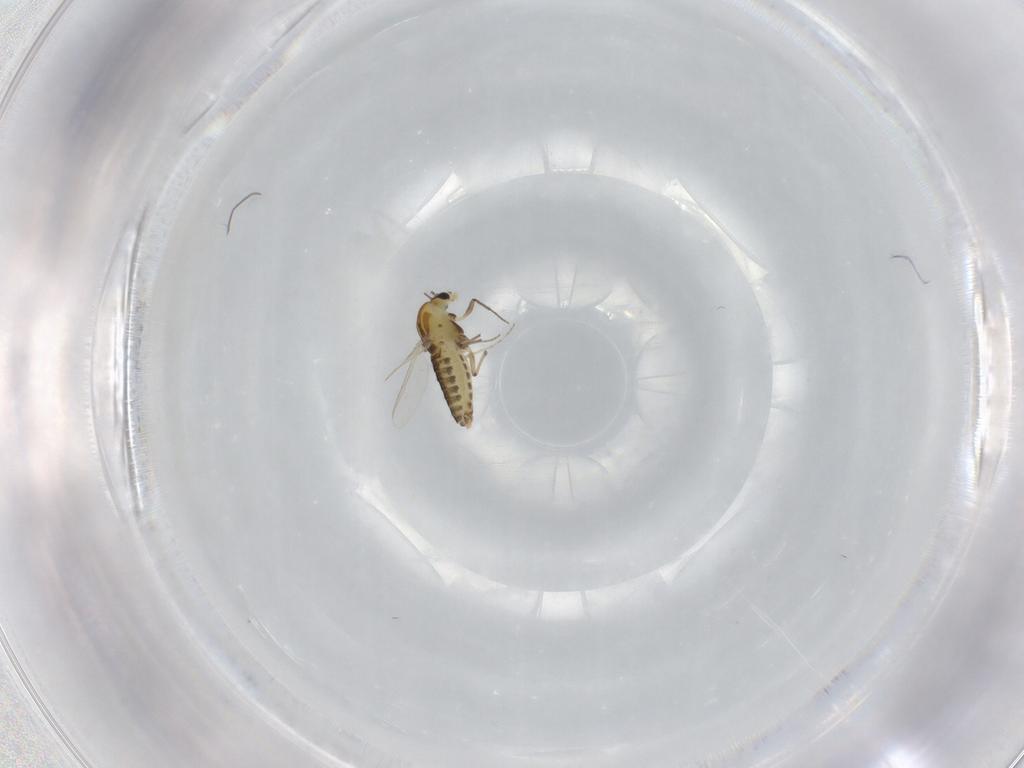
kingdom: Animalia
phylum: Arthropoda
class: Insecta
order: Diptera
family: Chironomidae
